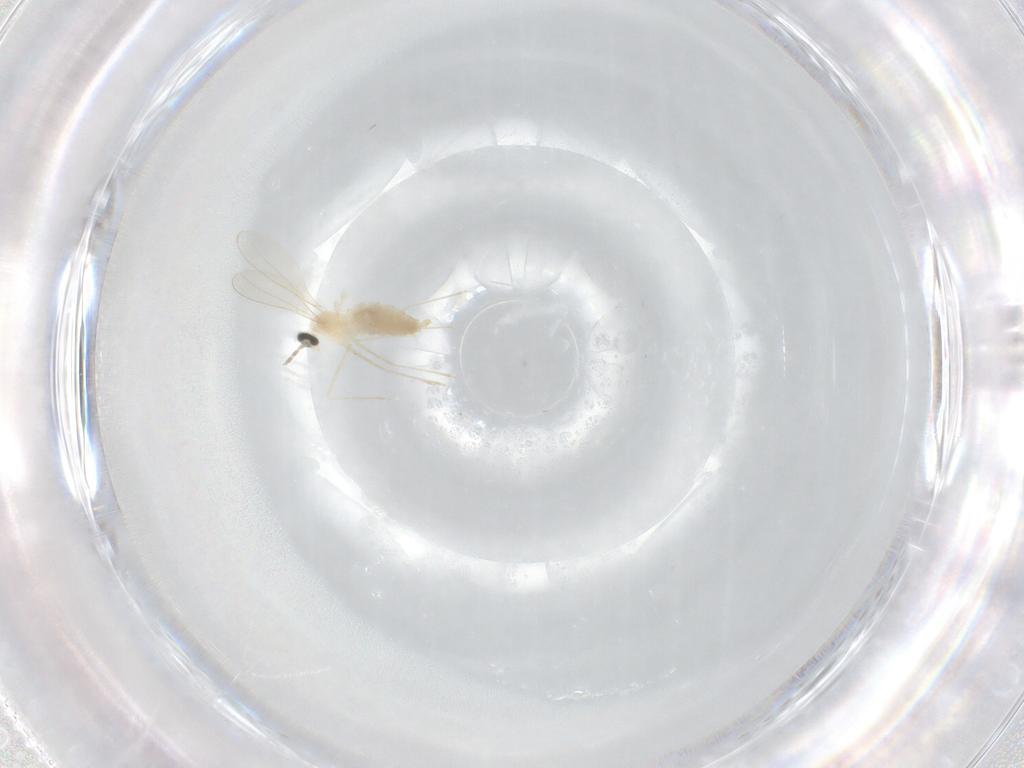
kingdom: Animalia
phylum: Arthropoda
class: Insecta
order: Diptera
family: Cecidomyiidae
